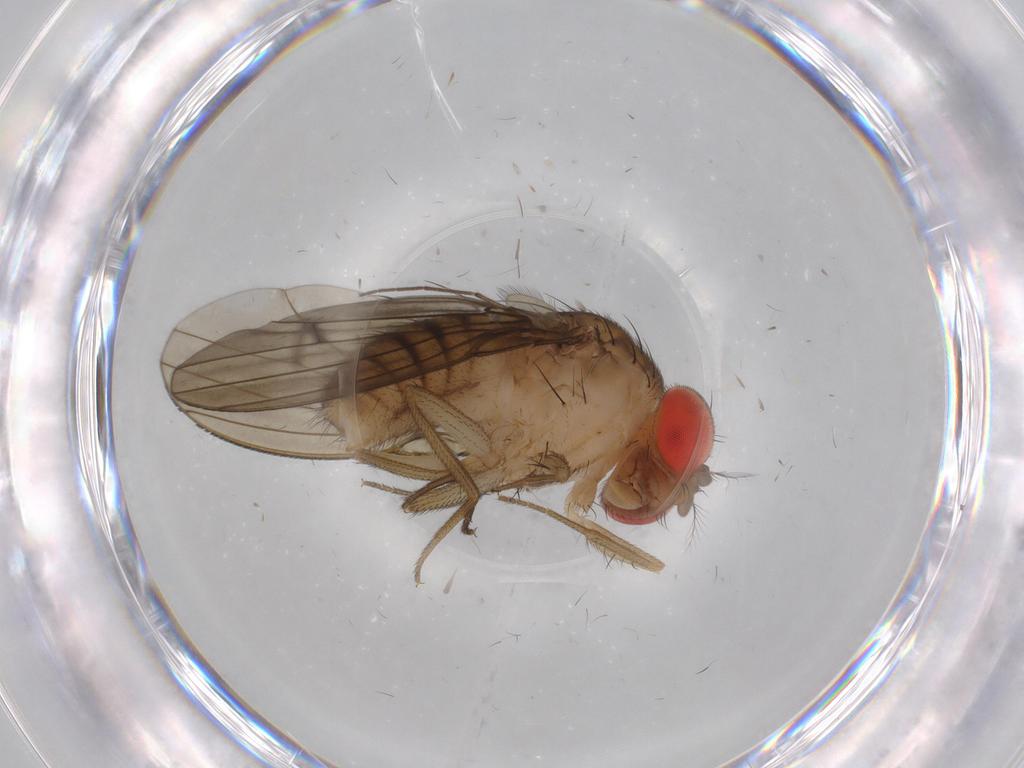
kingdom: Animalia
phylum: Arthropoda
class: Insecta
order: Diptera
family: Drosophilidae
